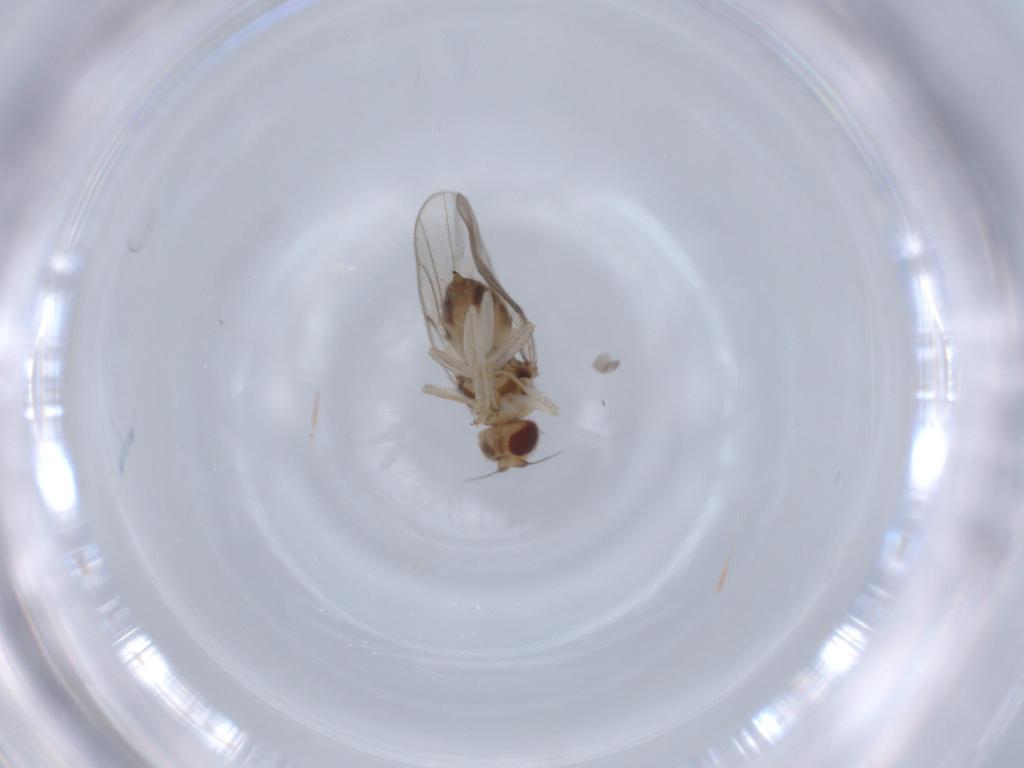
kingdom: Animalia
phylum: Arthropoda
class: Insecta
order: Diptera
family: Chloropidae
